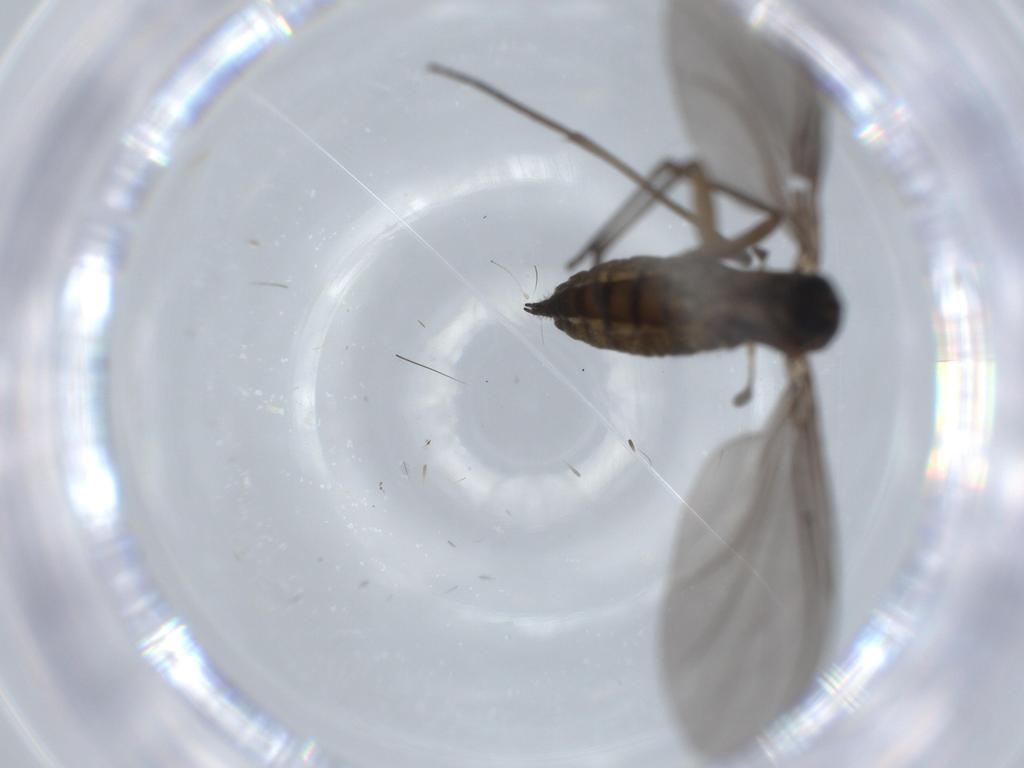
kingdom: Animalia
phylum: Arthropoda
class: Insecta
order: Diptera
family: Sciaridae
